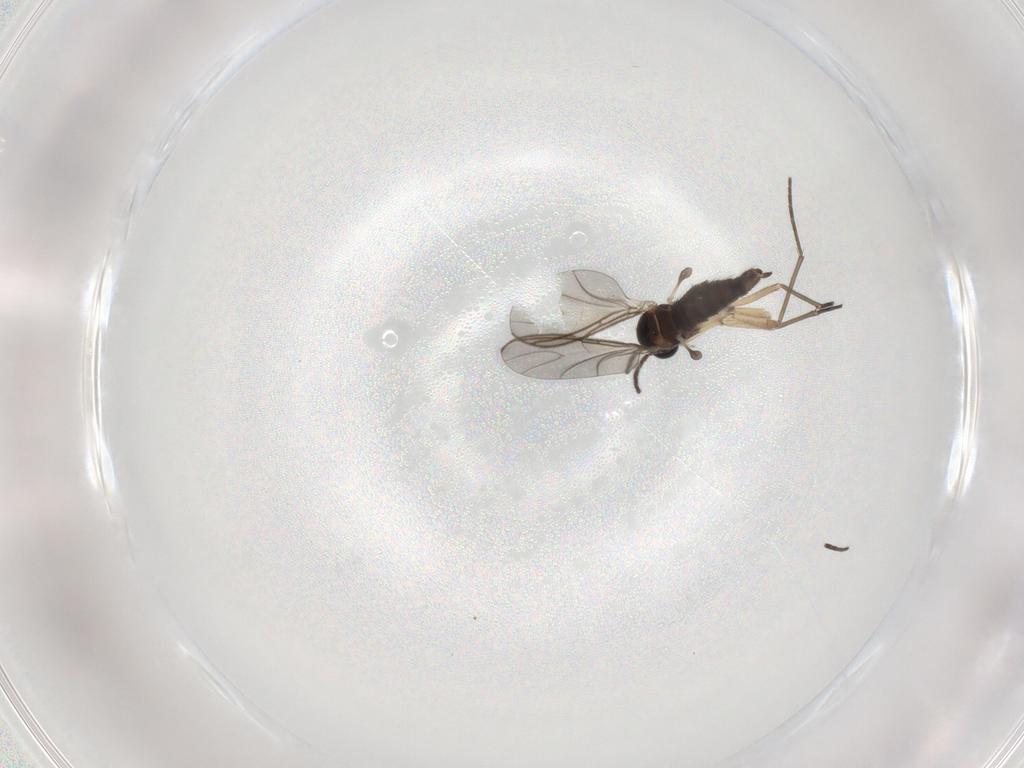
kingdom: Animalia
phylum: Arthropoda
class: Insecta
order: Diptera
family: Sciaridae
